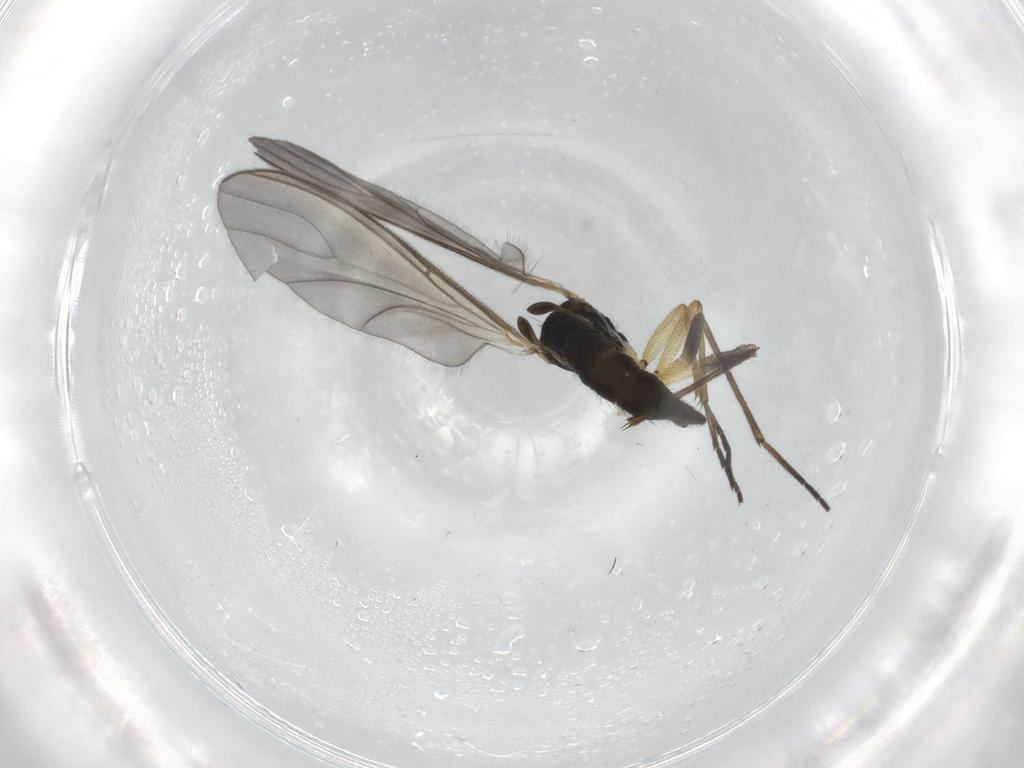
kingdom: Animalia
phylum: Arthropoda
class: Insecta
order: Diptera
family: Sciaridae
